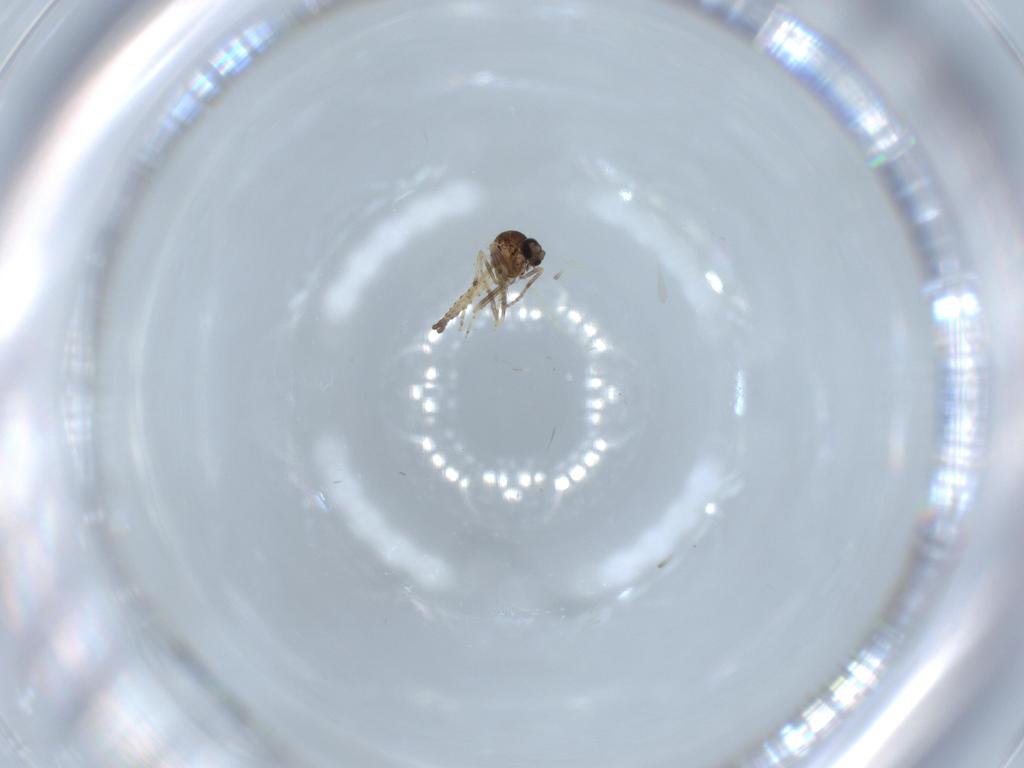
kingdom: Animalia
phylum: Arthropoda
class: Insecta
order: Diptera
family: Ceratopogonidae
